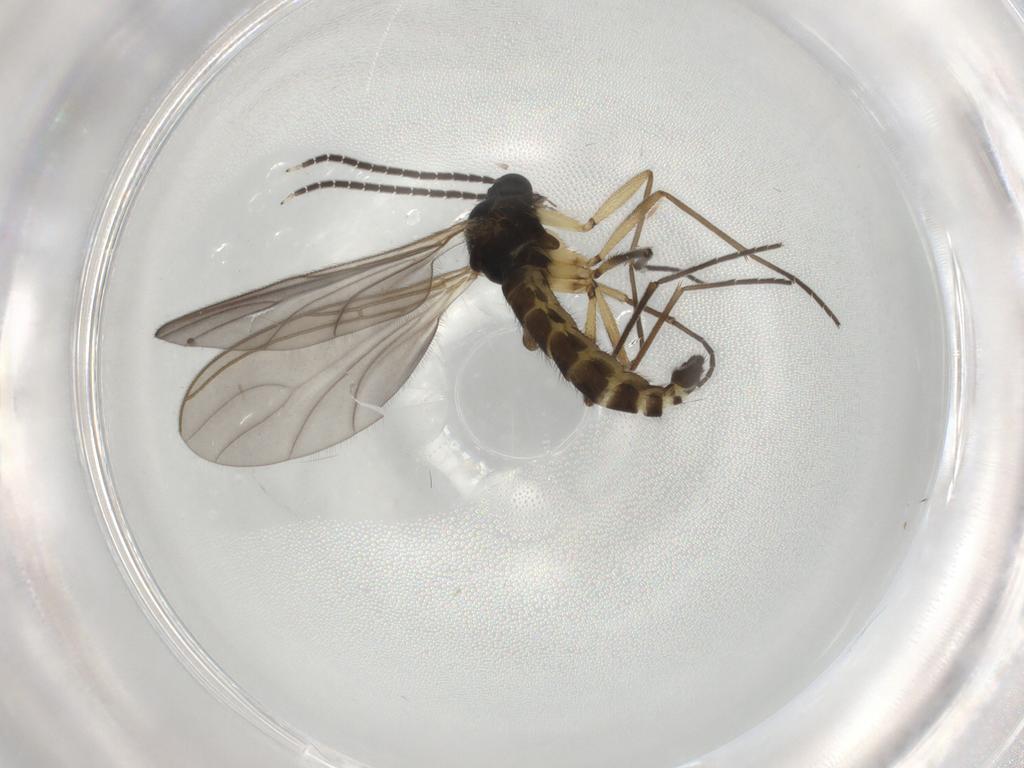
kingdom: Animalia
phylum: Arthropoda
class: Insecta
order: Diptera
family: Sciaridae
